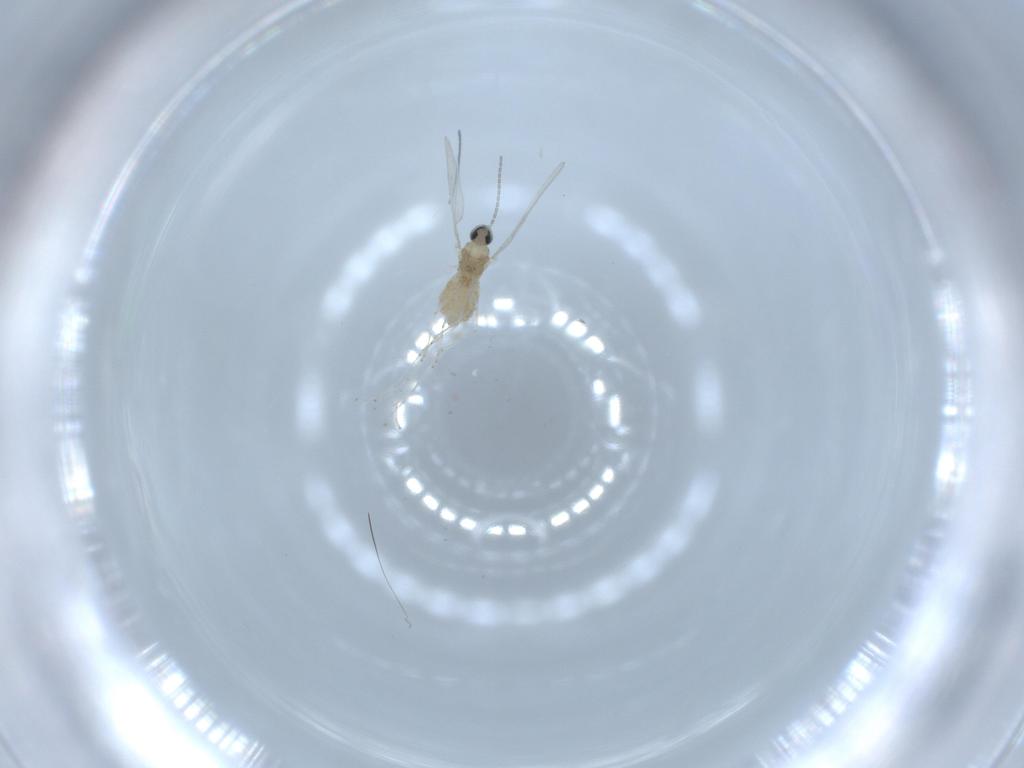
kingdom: Animalia
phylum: Arthropoda
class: Insecta
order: Diptera
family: Cecidomyiidae
